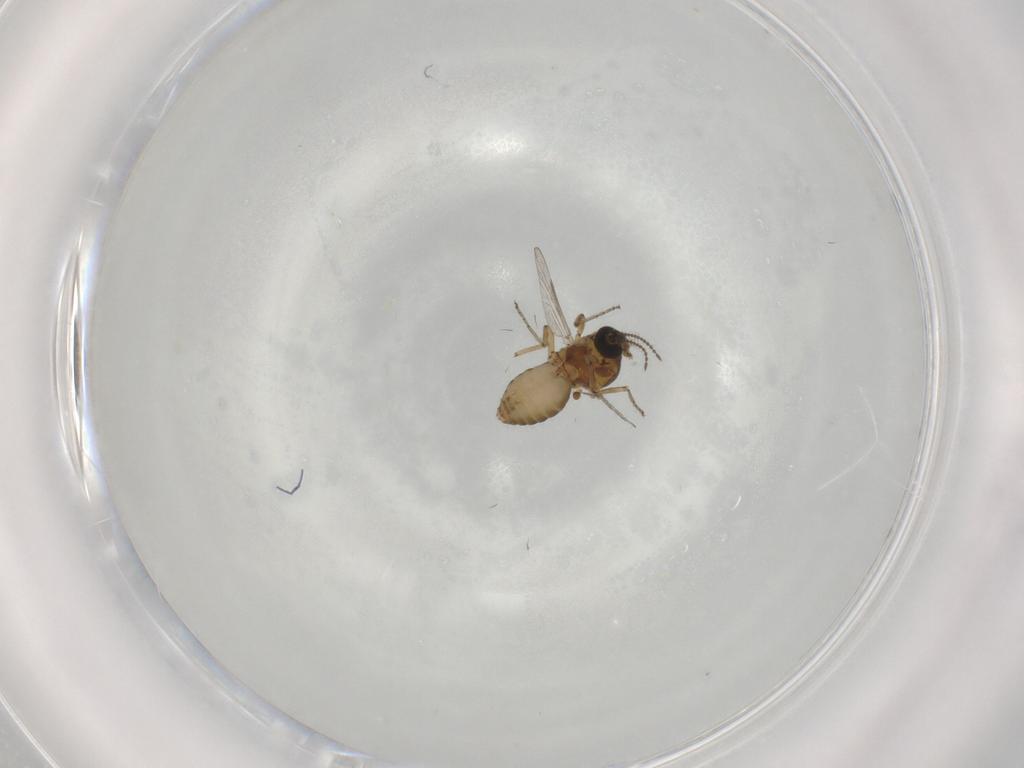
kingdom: Animalia
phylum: Arthropoda
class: Insecta
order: Diptera
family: Ceratopogonidae
